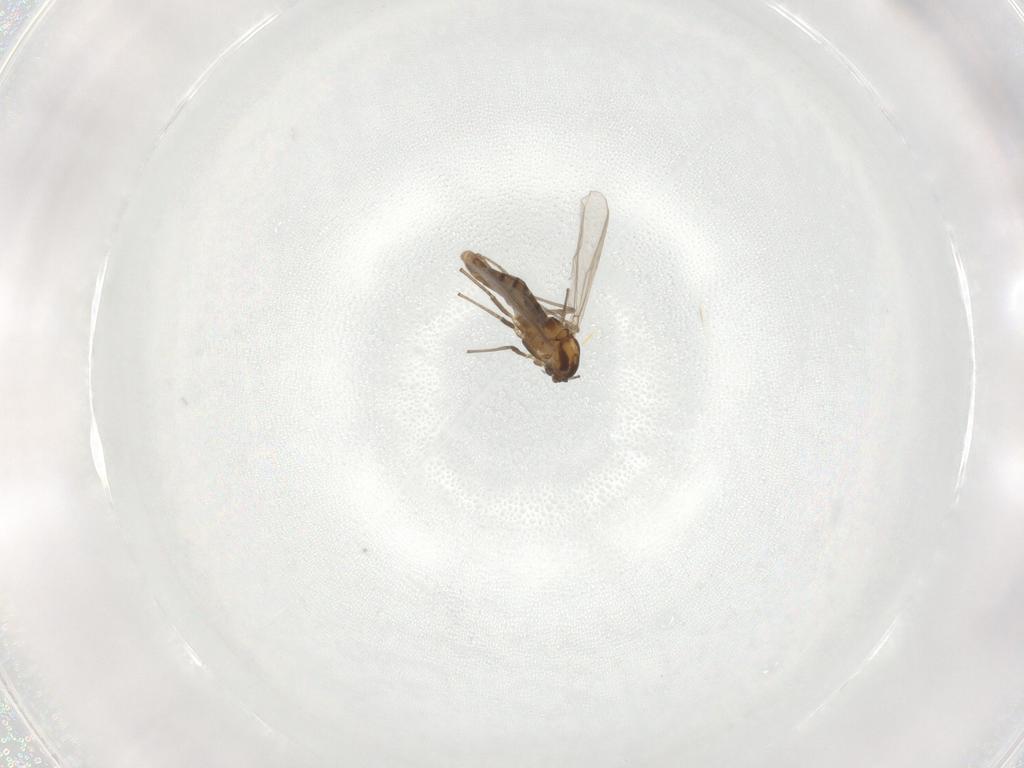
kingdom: Animalia
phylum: Arthropoda
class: Insecta
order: Diptera
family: Chironomidae
